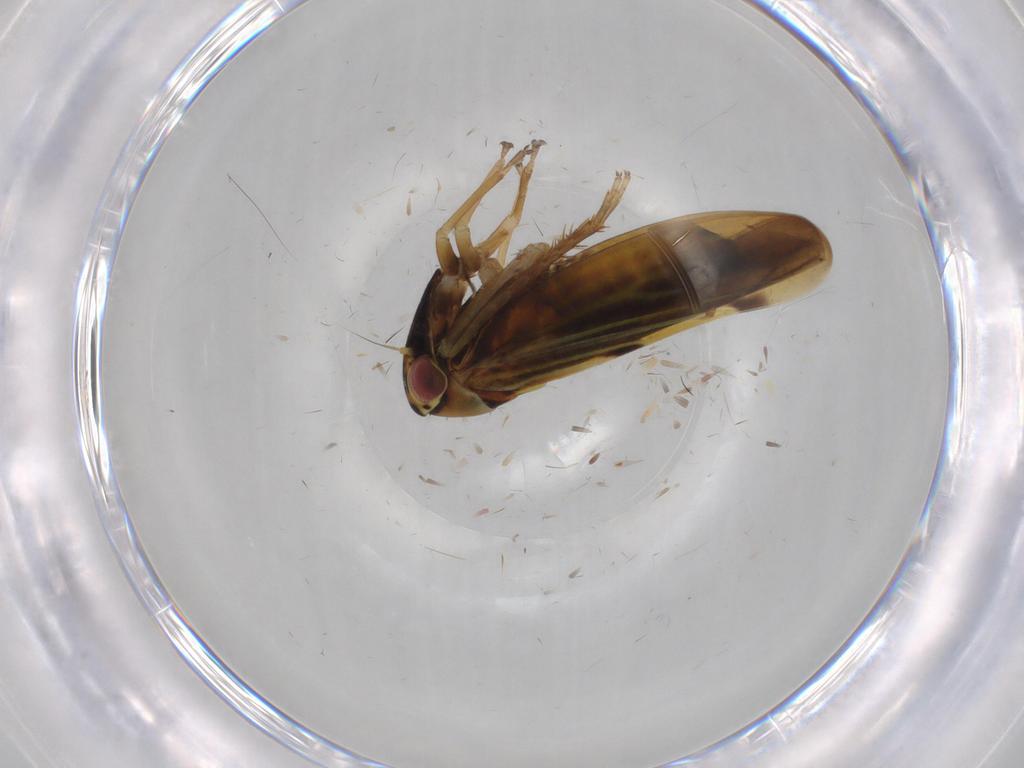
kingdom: Animalia
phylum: Arthropoda
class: Insecta
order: Hemiptera
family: Cicadellidae
